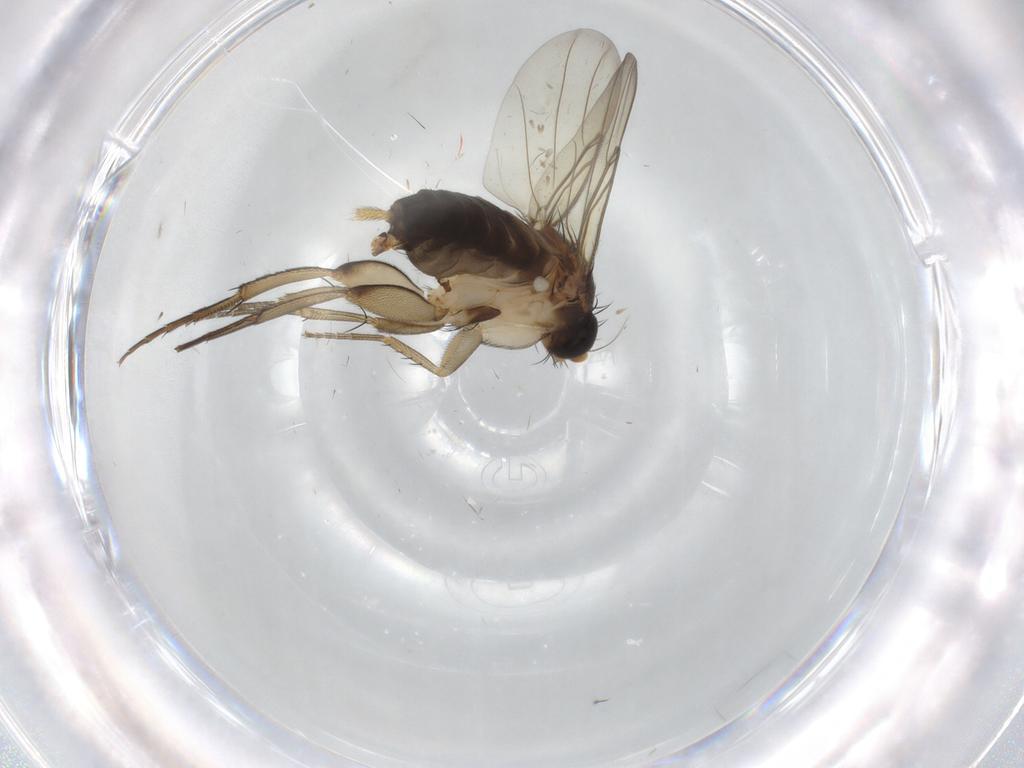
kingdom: Animalia
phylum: Arthropoda
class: Insecta
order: Diptera
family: Phoridae
